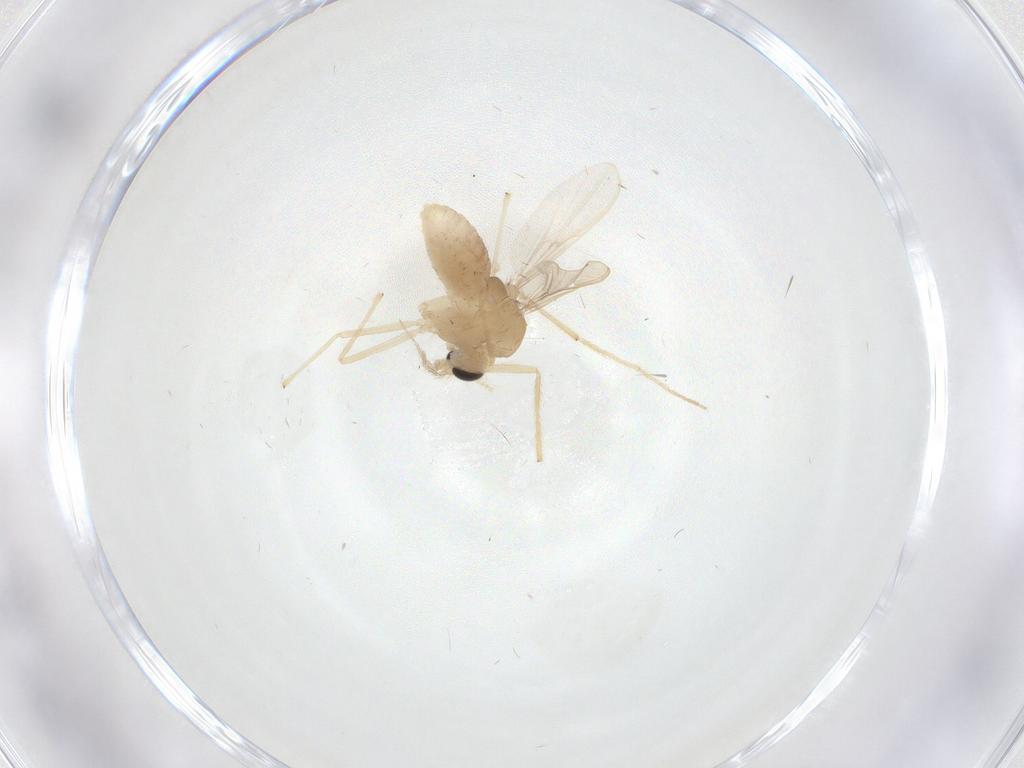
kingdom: Animalia
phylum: Arthropoda
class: Insecta
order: Diptera
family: Chironomidae
